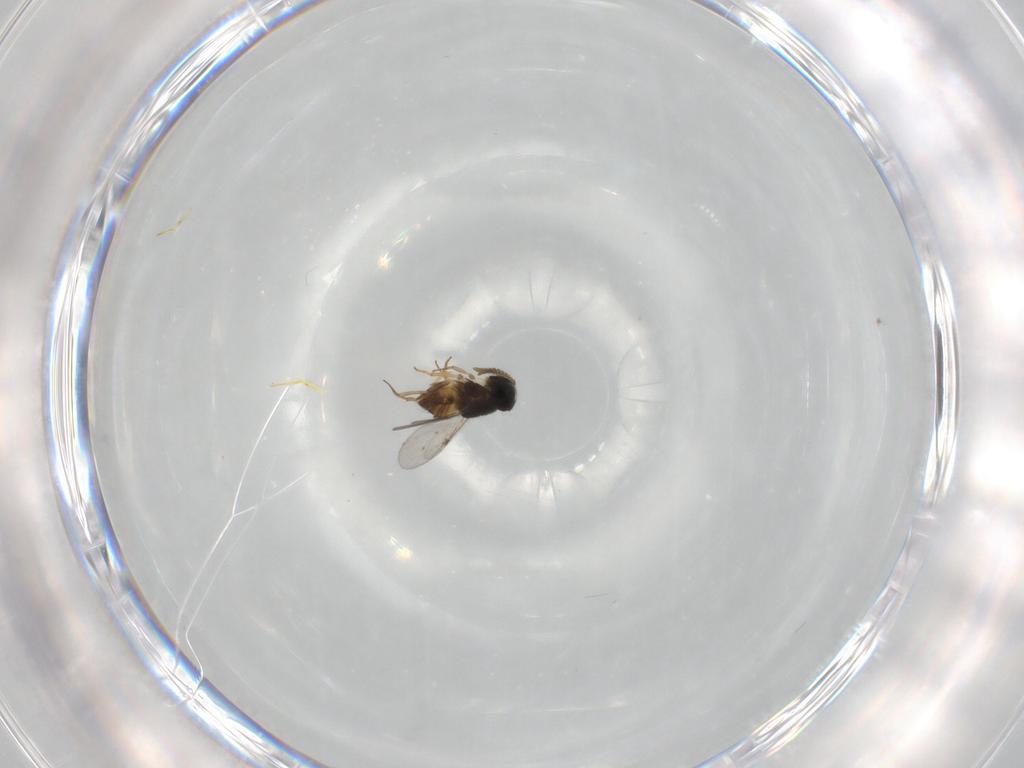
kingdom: Animalia
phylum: Arthropoda
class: Insecta
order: Hymenoptera
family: Encyrtidae
